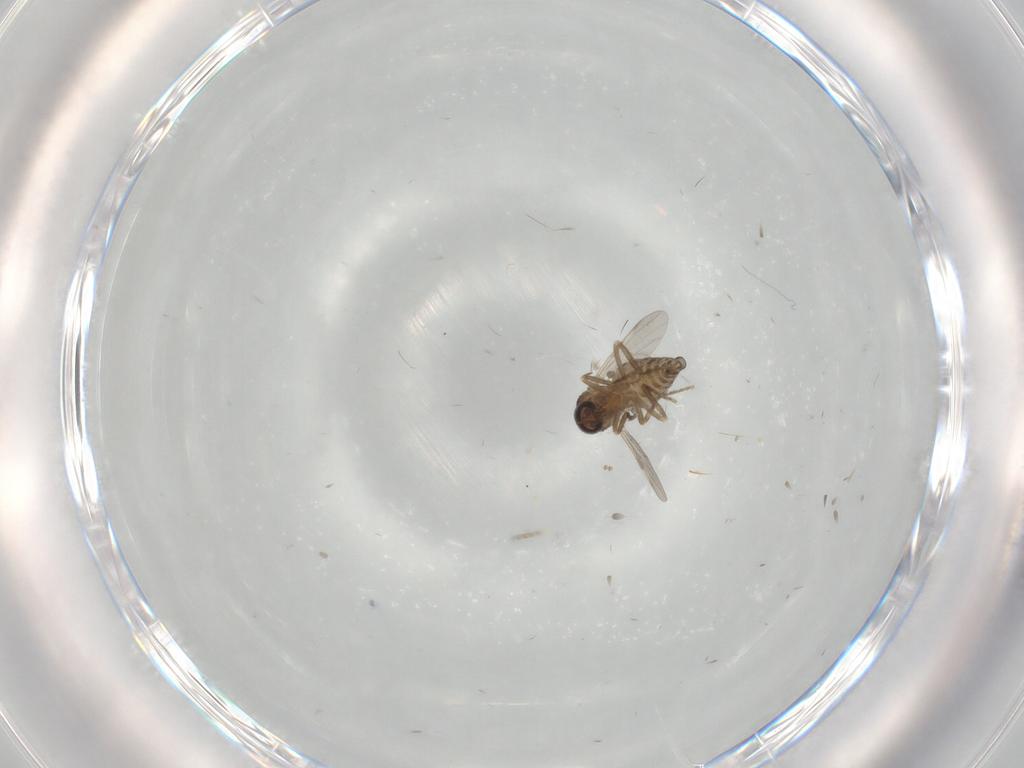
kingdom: Animalia
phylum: Arthropoda
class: Insecta
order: Diptera
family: Ceratopogonidae
